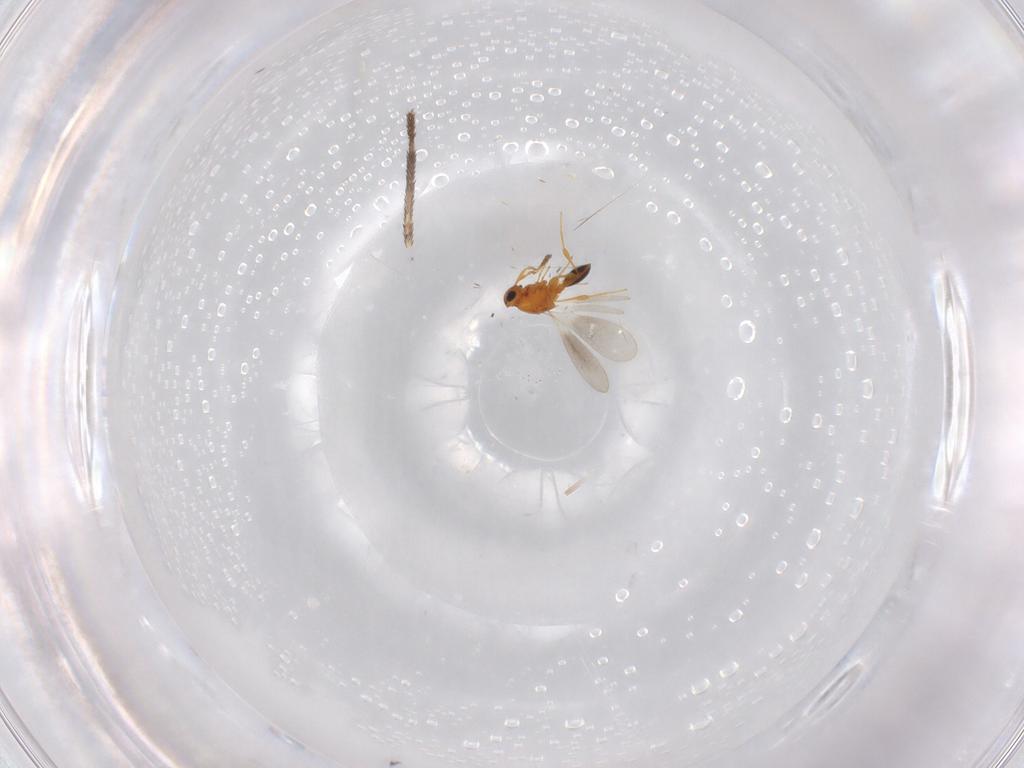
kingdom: Animalia
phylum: Arthropoda
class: Insecta
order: Hymenoptera
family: Platygastridae
